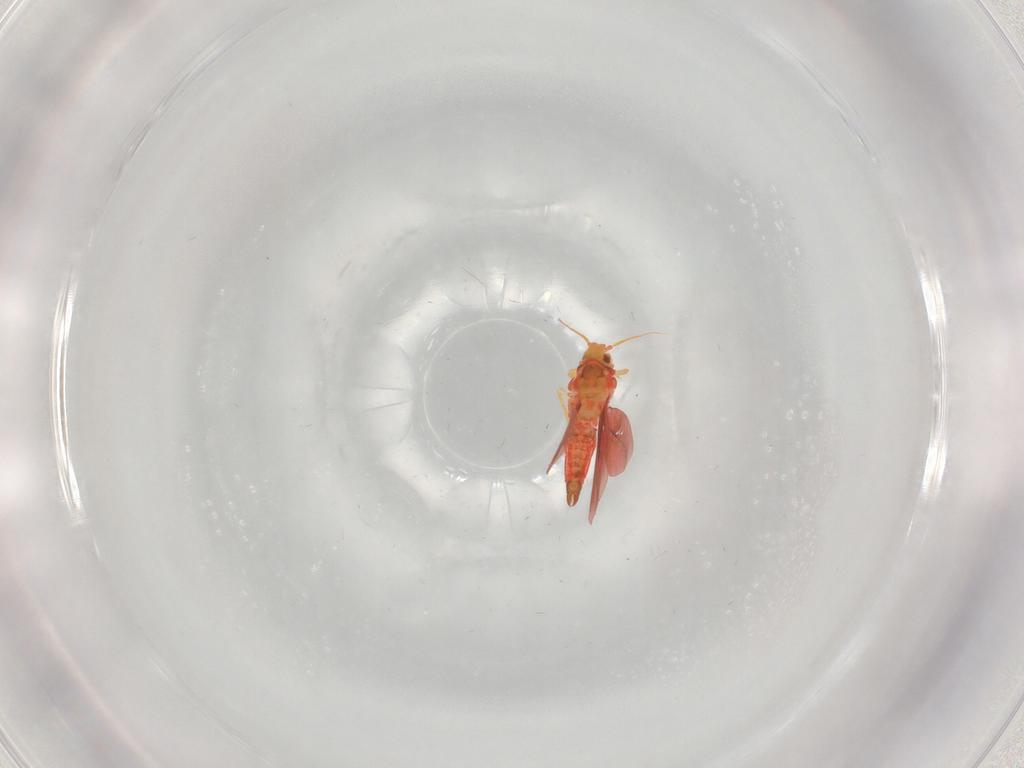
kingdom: Animalia
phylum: Arthropoda
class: Insecta
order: Hemiptera
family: Aleyrodidae
